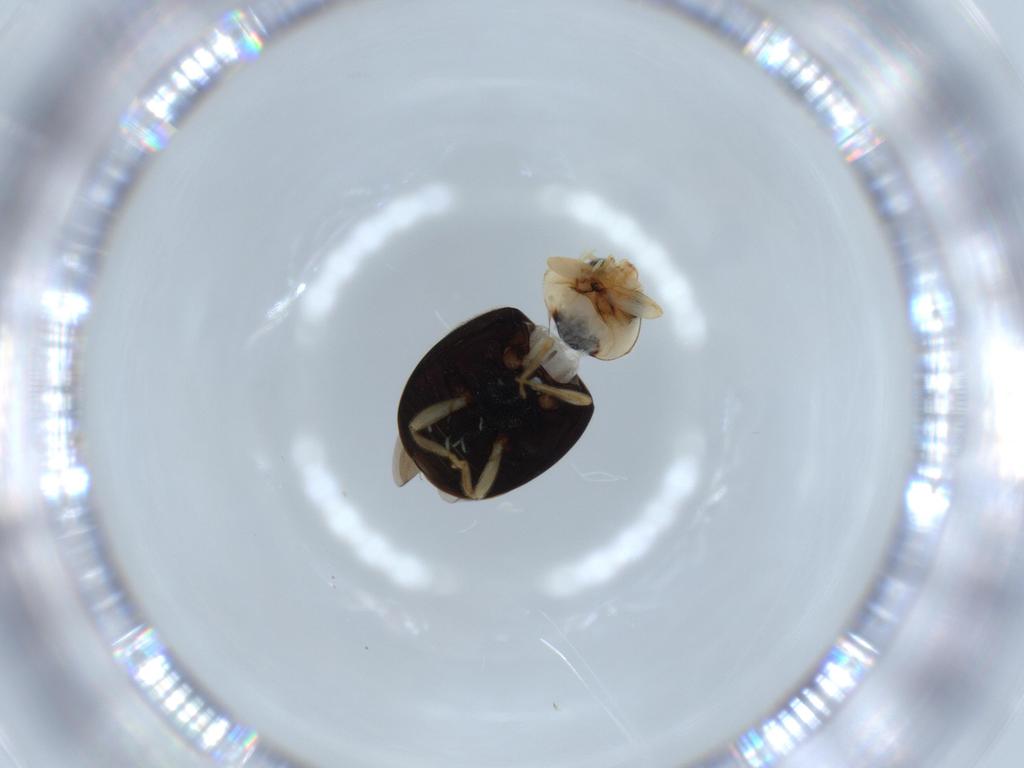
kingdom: Animalia
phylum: Arthropoda
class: Insecta
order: Coleoptera
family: Coccinellidae
